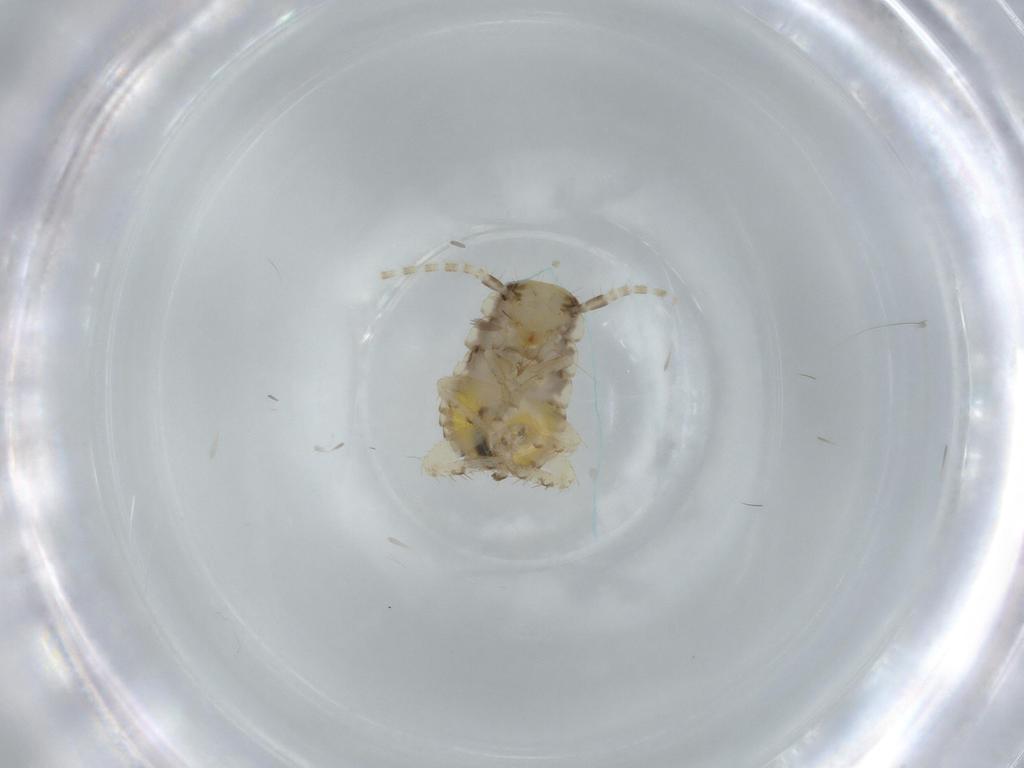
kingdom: Animalia
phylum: Arthropoda
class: Insecta
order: Blattodea
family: Ectobiidae
